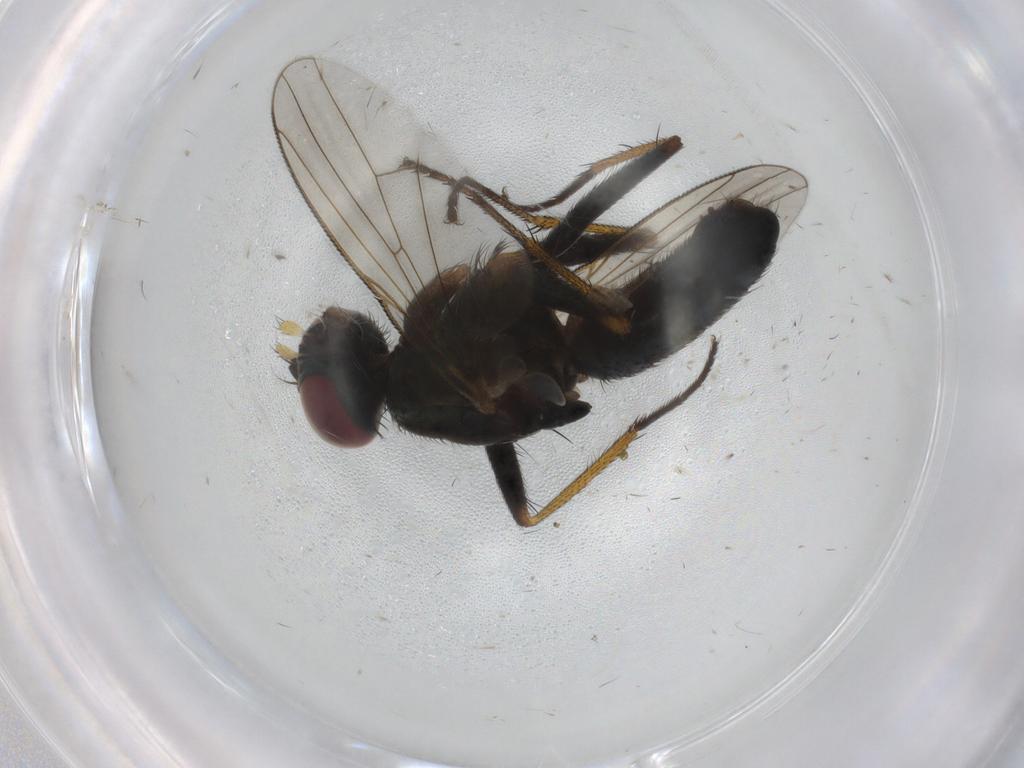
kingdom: Animalia
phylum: Arthropoda
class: Insecta
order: Diptera
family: Muscidae
